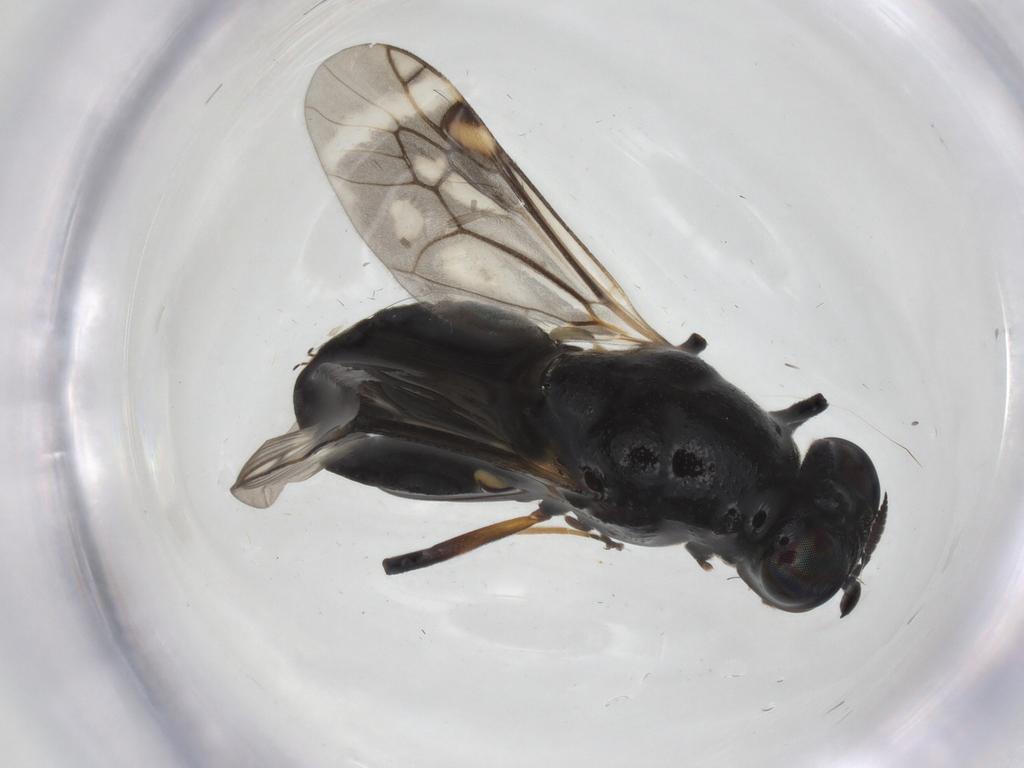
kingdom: Animalia
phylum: Arthropoda
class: Insecta
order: Diptera
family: Stratiomyidae
